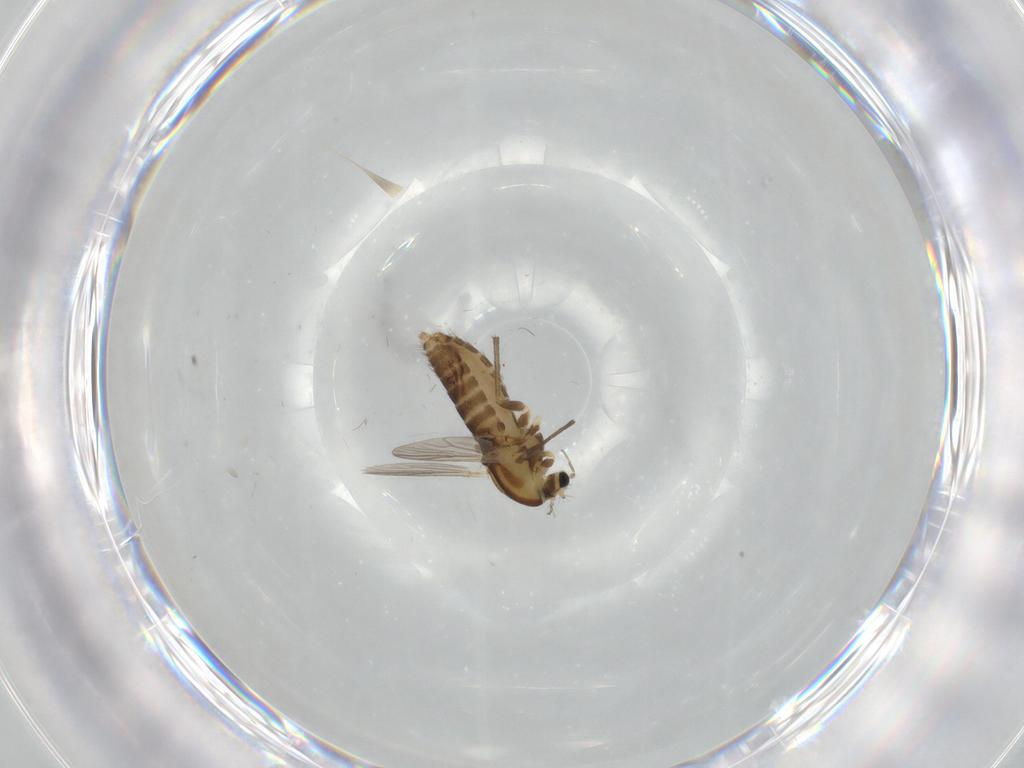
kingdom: Animalia
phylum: Arthropoda
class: Insecta
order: Diptera
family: Chironomidae
